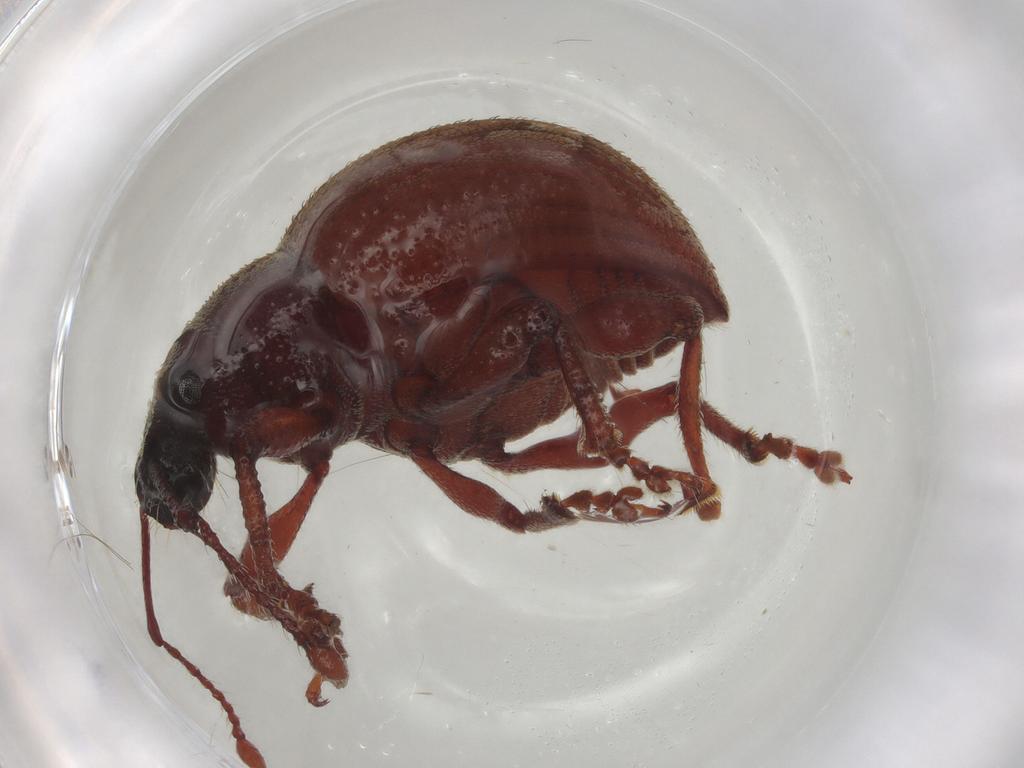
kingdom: Animalia
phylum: Arthropoda
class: Insecta
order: Coleoptera
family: Curculionidae
